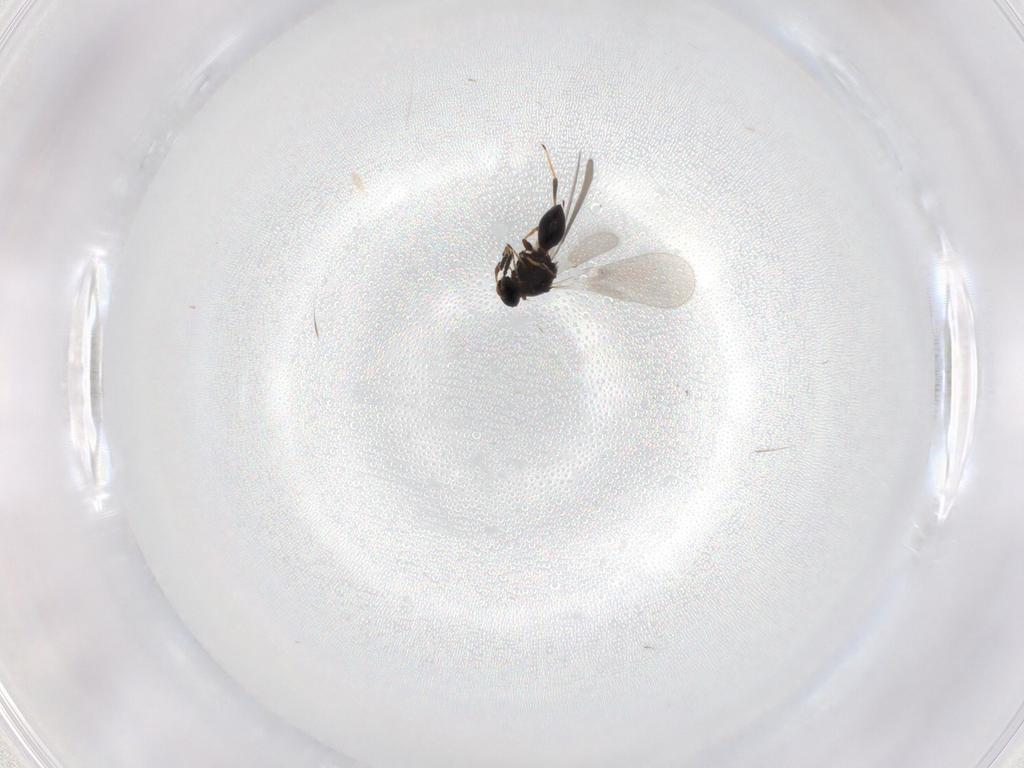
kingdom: Animalia
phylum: Arthropoda
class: Insecta
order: Hymenoptera
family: Platygastridae
